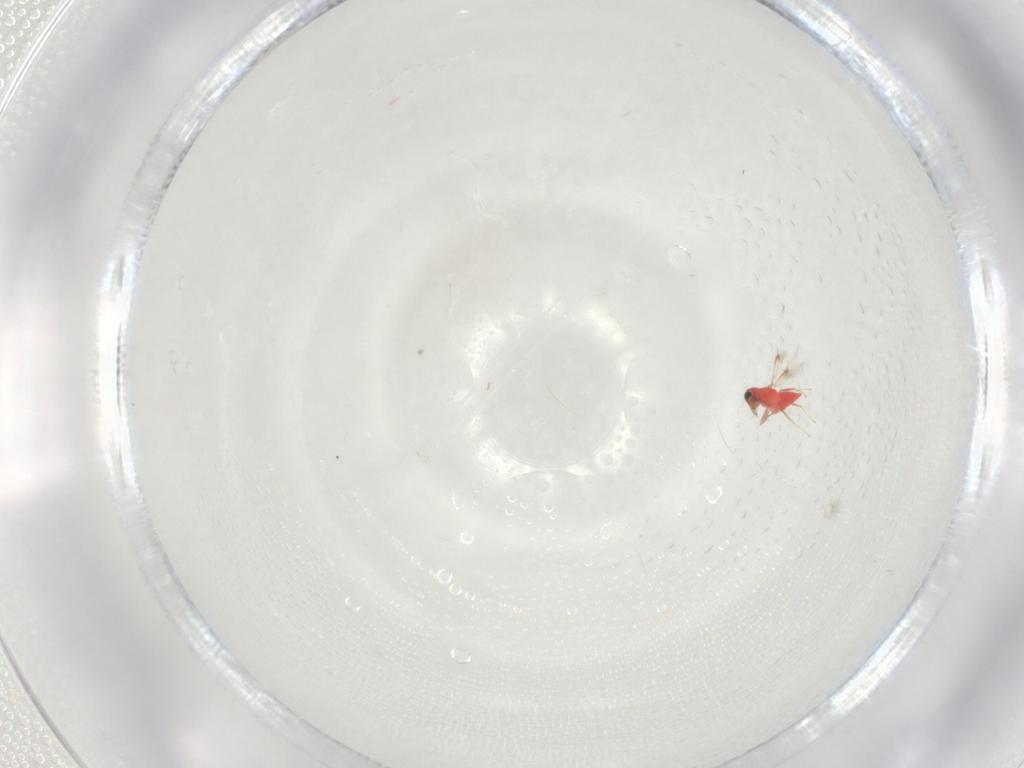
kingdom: Animalia
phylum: Arthropoda
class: Insecta
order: Hymenoptera
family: Trichogrammatidae
